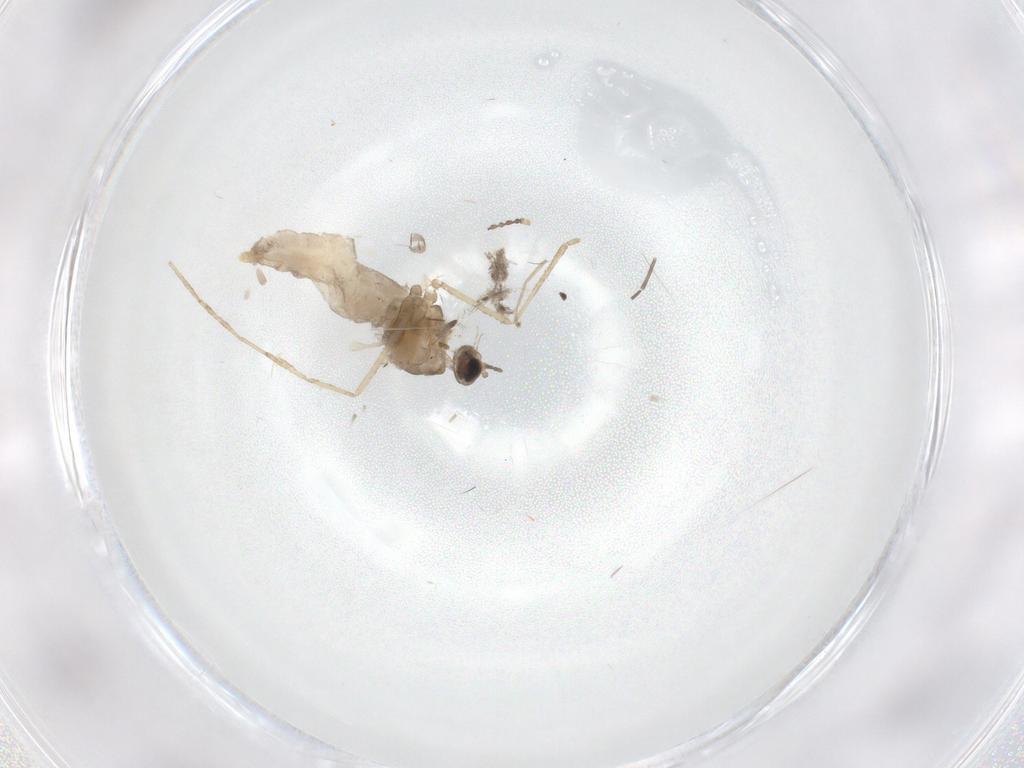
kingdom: Animalia
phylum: Arthropoda
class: Insecta
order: Diptera
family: Cecidomyiidae
